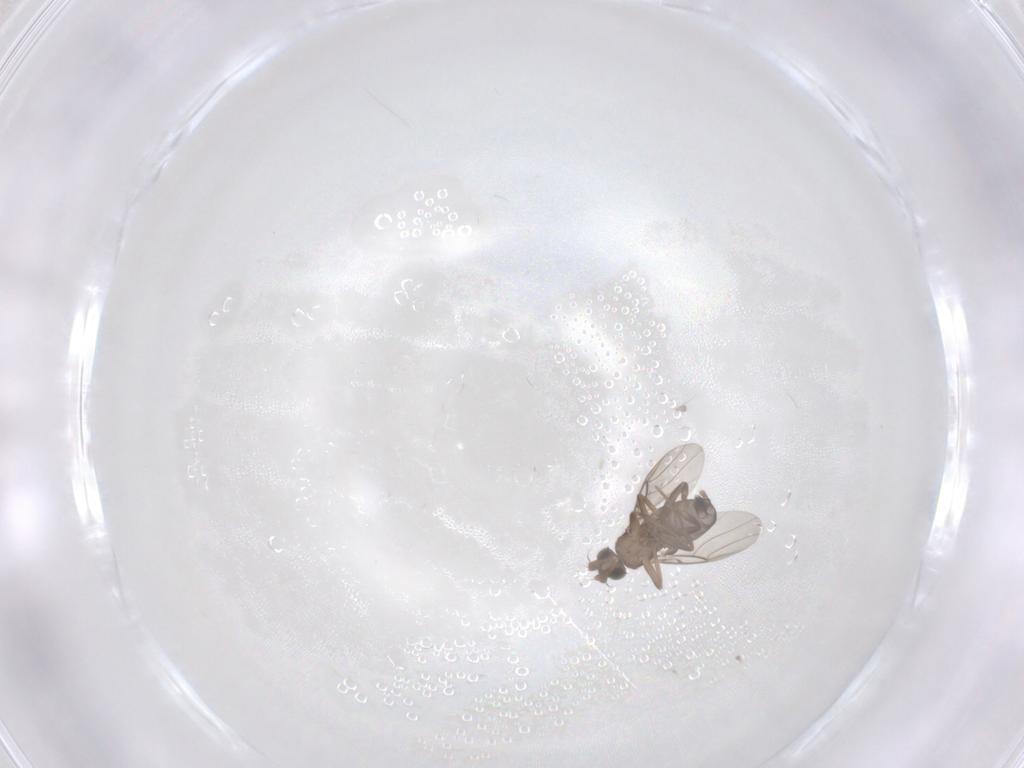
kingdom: Animalia
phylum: Arthropoda
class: Insecta
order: Diptera
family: Phoridae
